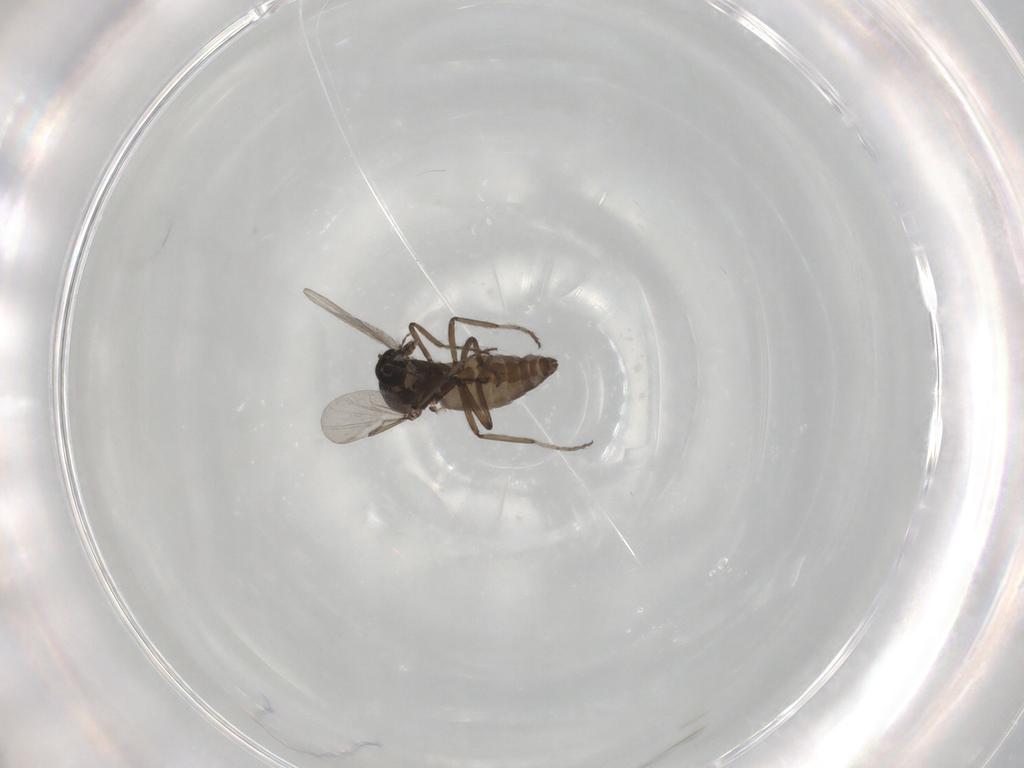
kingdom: Animalia
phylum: Arthropoda
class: Insecta
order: Diptera
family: Ceratopogonidae
